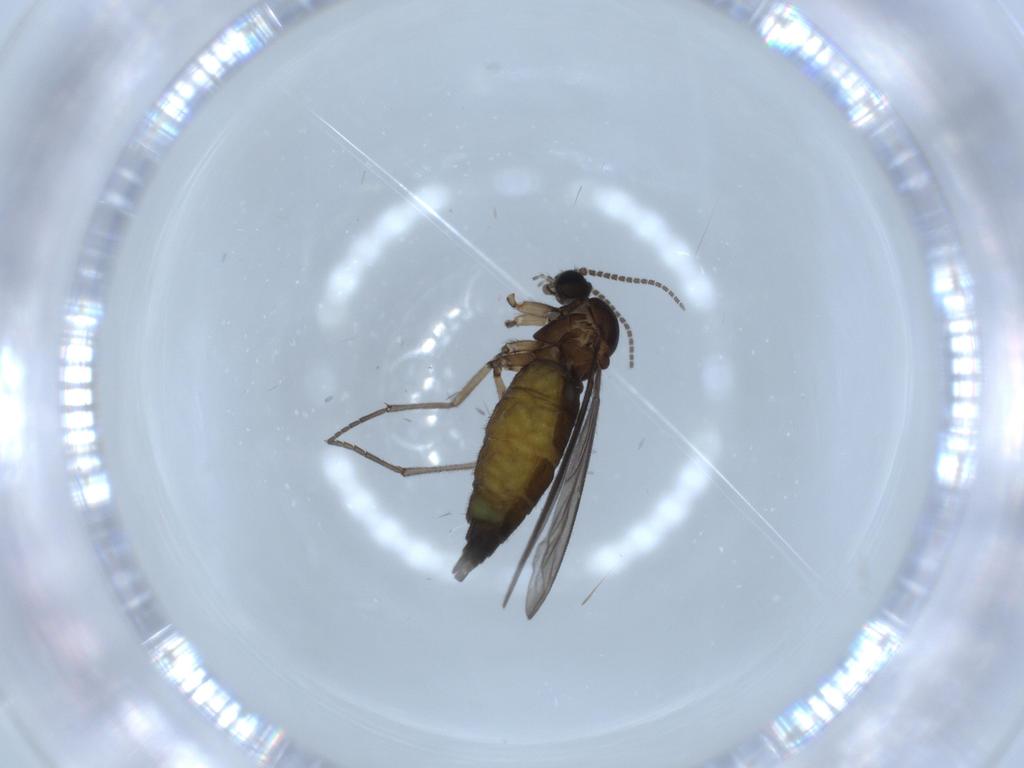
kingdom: Animalia
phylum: Arthropoda
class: Insecta
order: Diptera
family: Sciaridae
